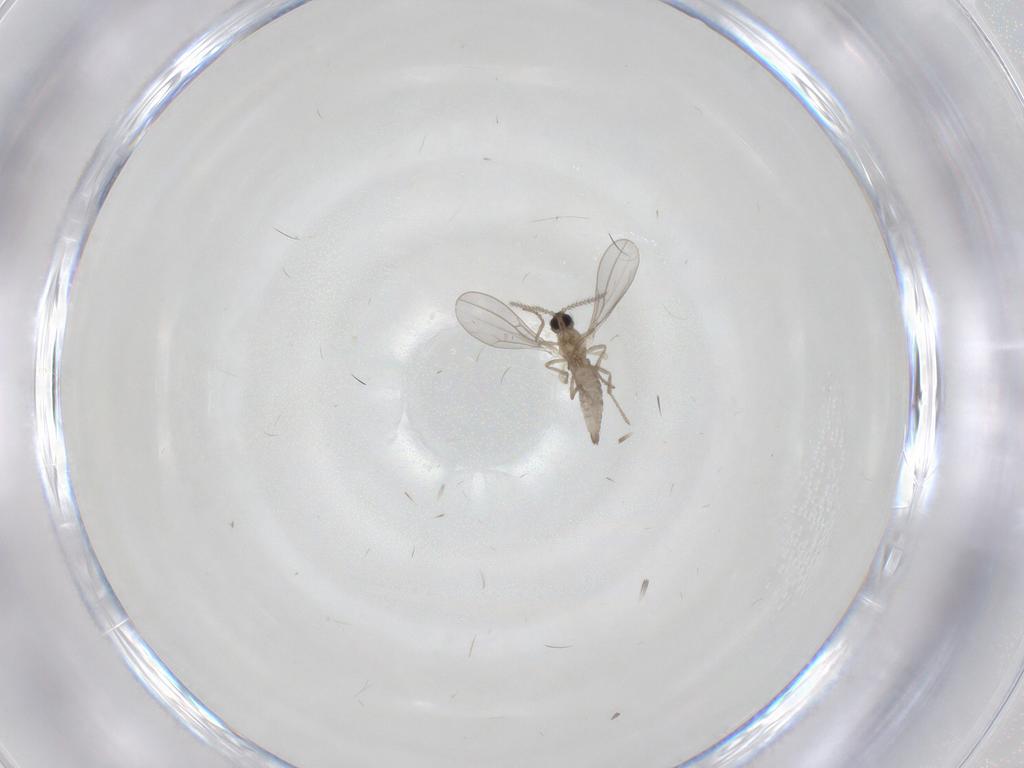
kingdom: Animalia
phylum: Arthropoda
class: Insecta
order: Diptera
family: Cecidomyiidae
